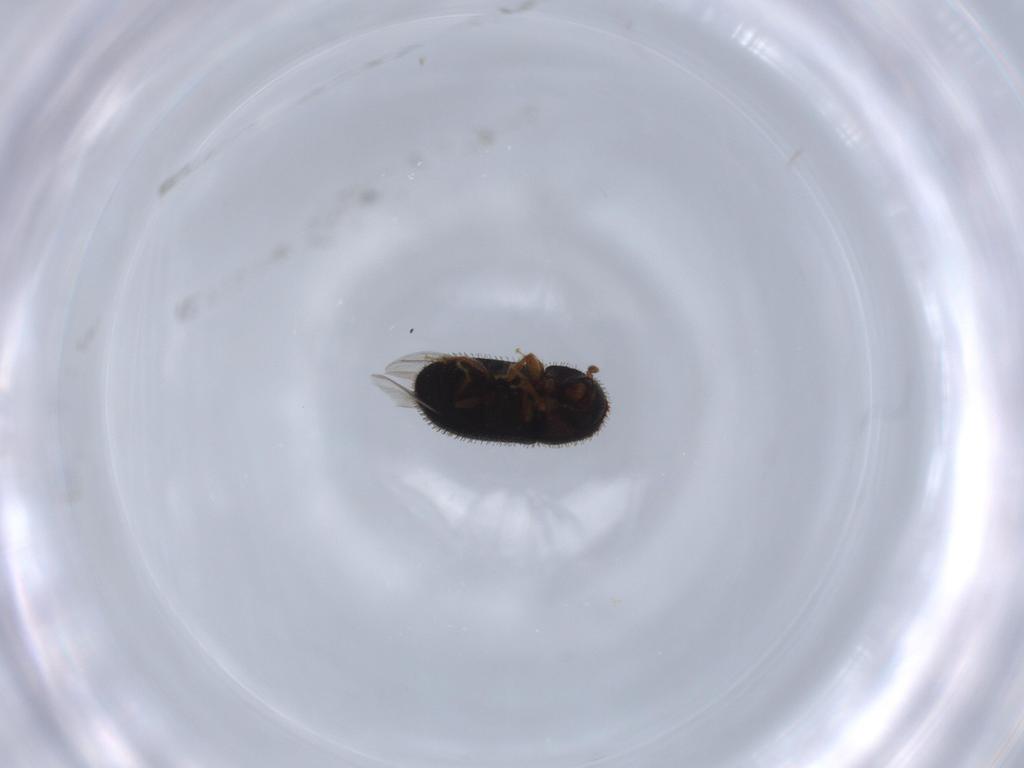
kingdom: Animalia
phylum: Arthropoda
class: Insecta
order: Coleoptera
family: Curculionidae
